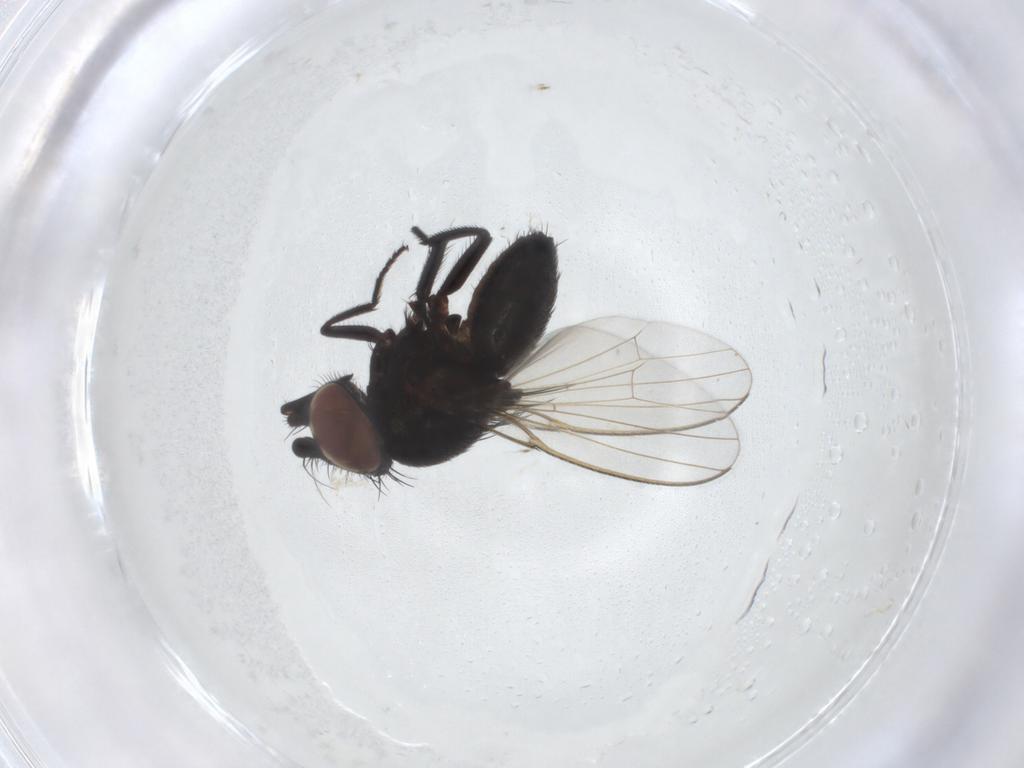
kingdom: Animalia
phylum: Arthropoda
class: Insecta
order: Diptera
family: Milichiidae
